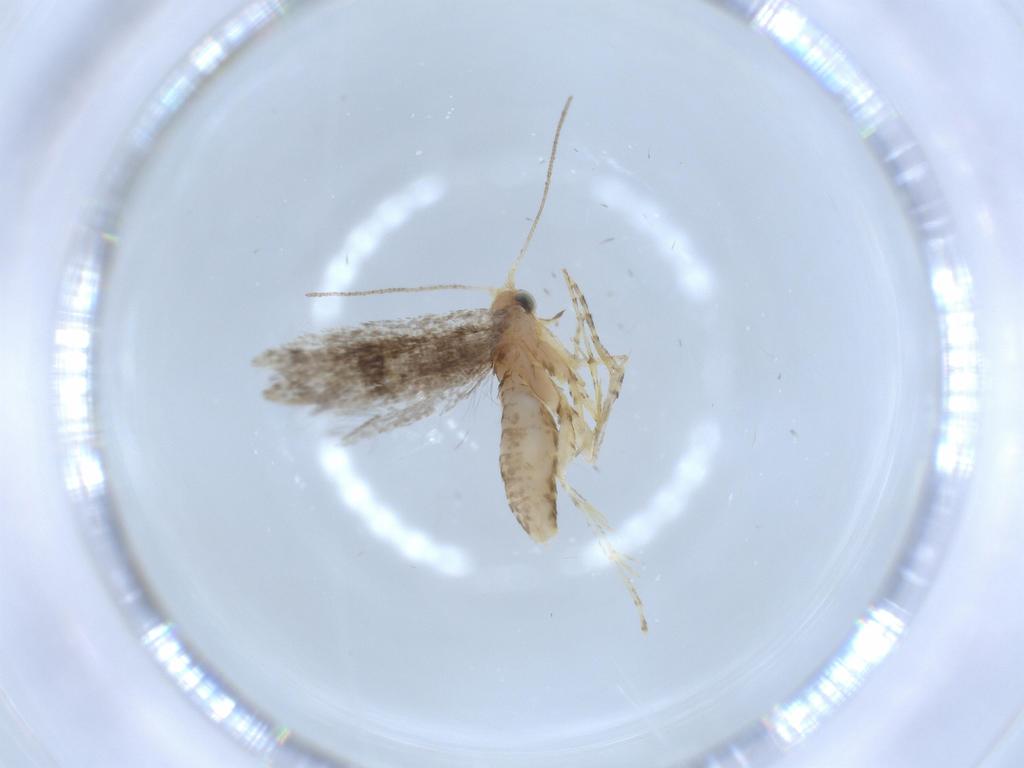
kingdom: Animalia
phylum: Arthropoda
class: Insecta
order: Lepidoptera
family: Argyresthiidae
